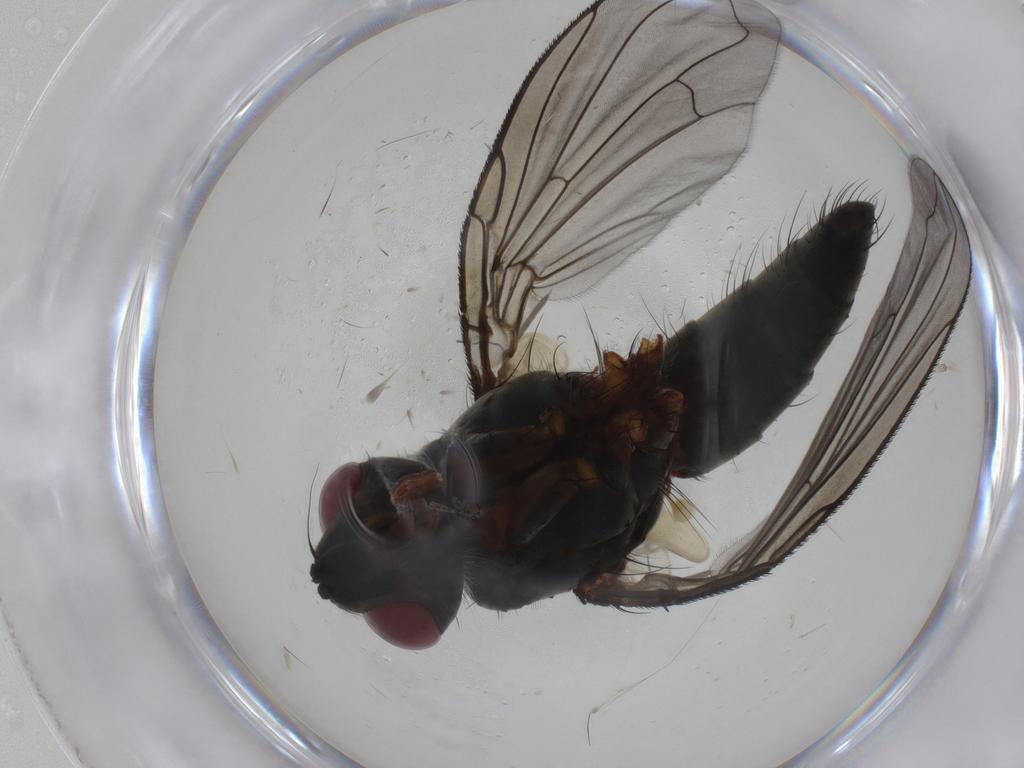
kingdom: Animalia
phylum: Arthropoda
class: Insecta
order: Diptera
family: Tachinidae
